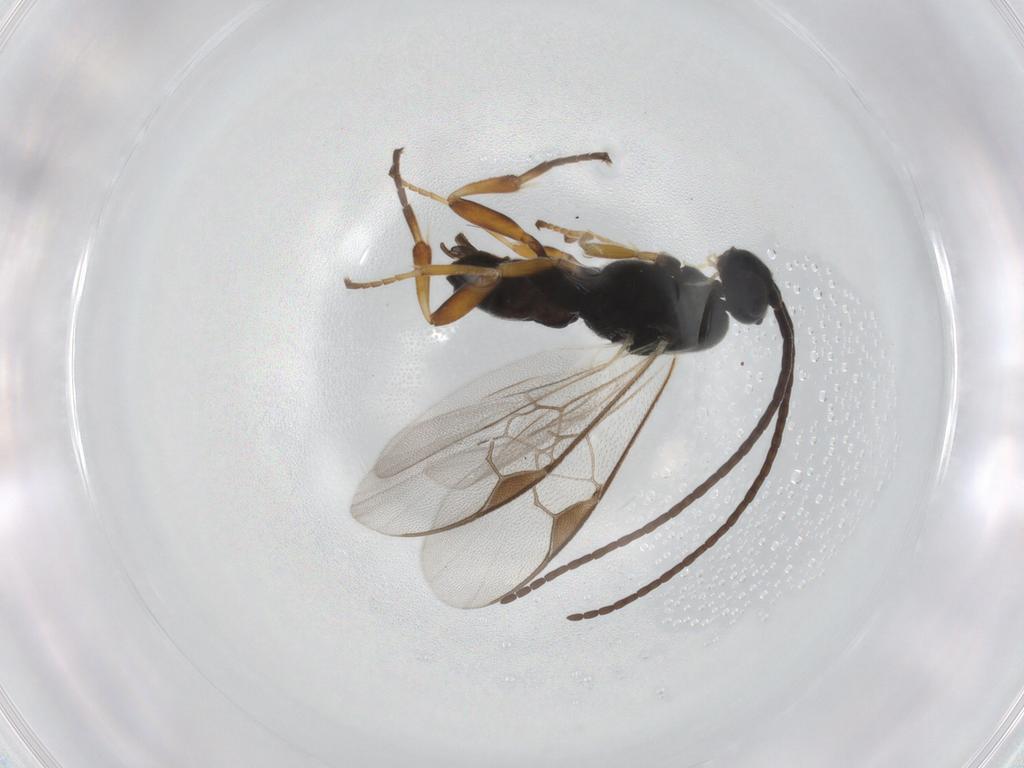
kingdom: Animalia
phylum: Arthropoda
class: Insecta
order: Hymenoptera
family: Braconidae
